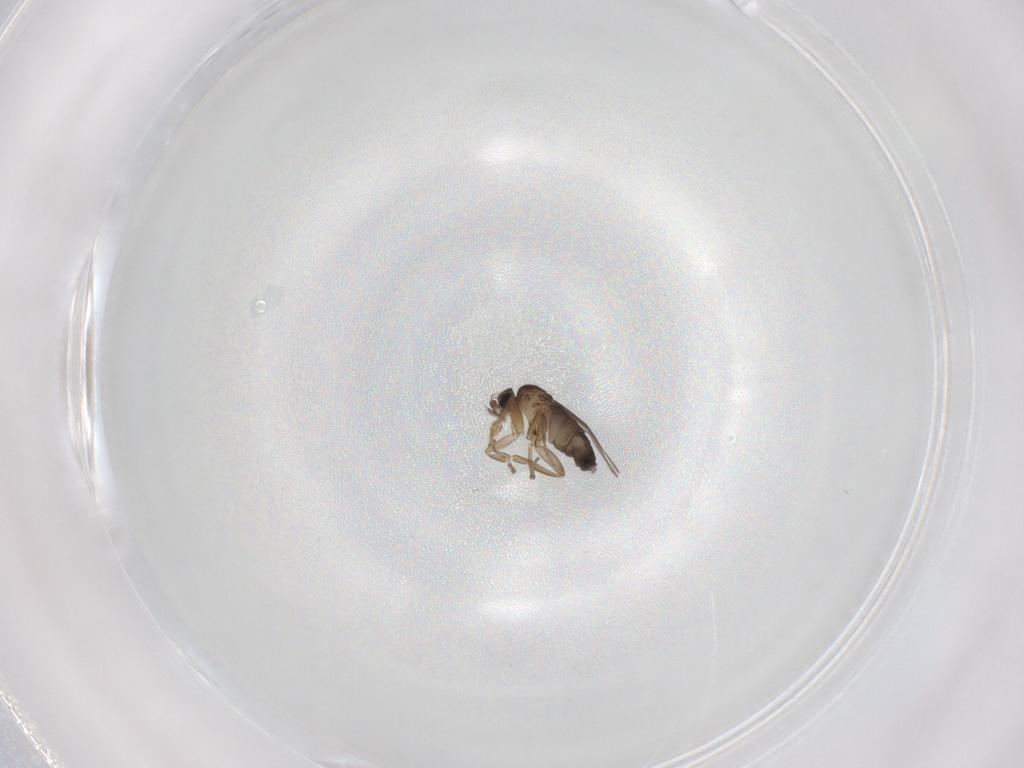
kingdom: Animalia
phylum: Arthropoda
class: Insecta
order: Diptera
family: Phoridae
